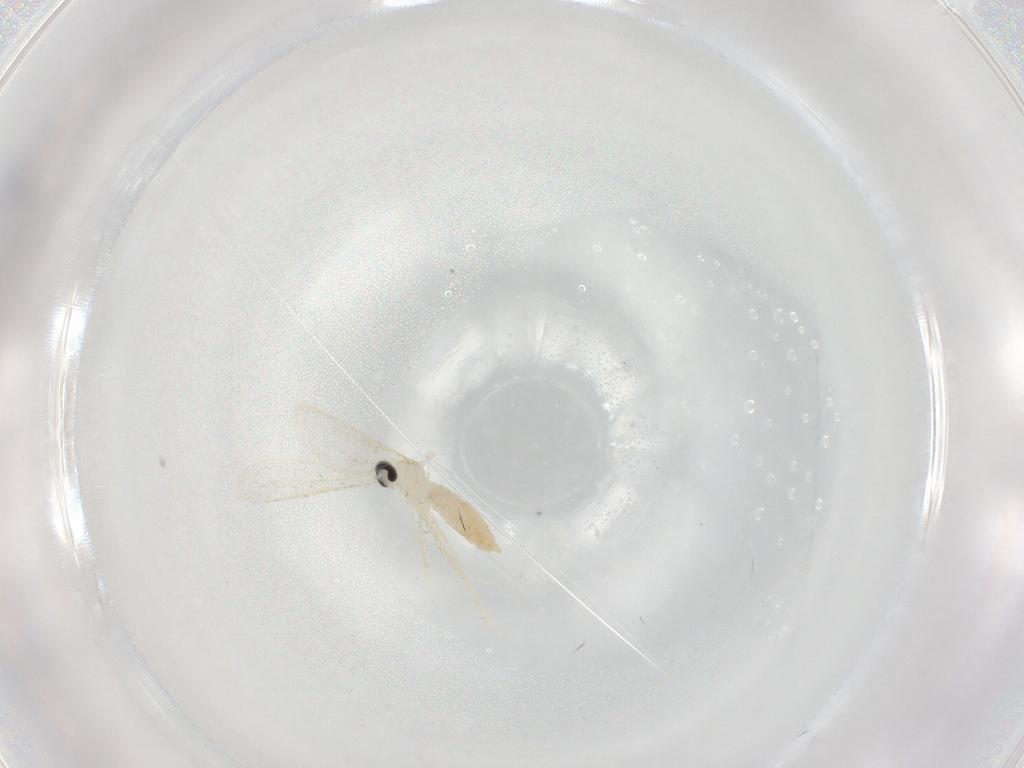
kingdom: Animalia
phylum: Arthropoda
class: Insecta
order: Diptera
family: Cecidomyiidae
